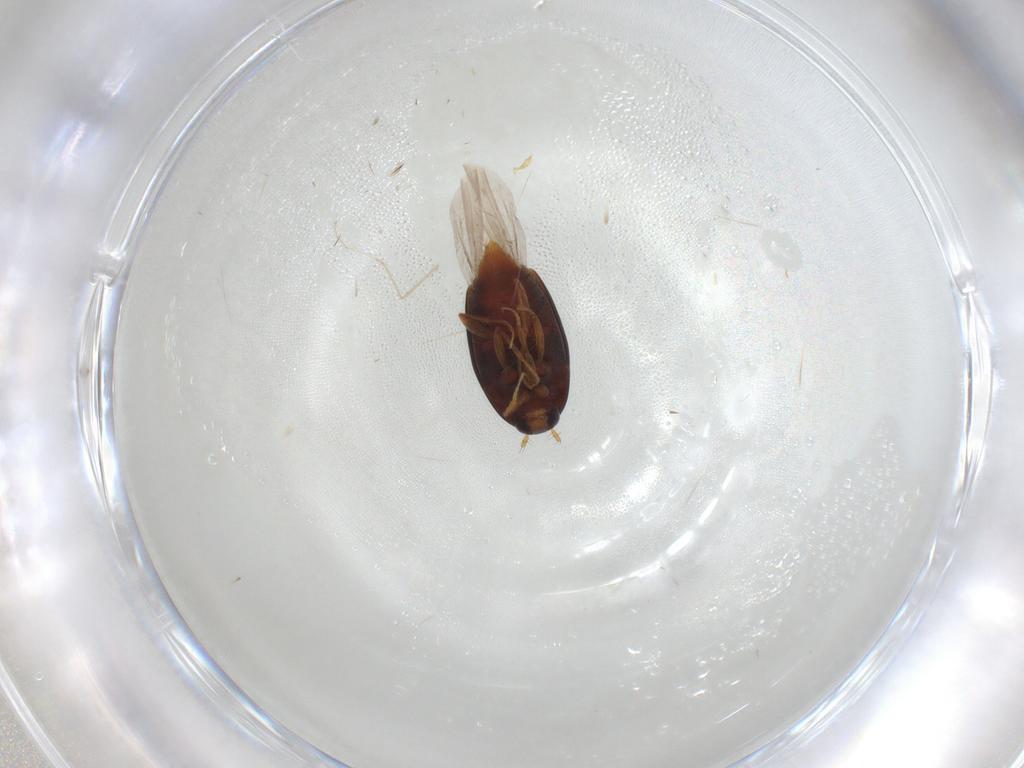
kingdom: Animalia
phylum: Arthropoda
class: Insecta
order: Coleoptera
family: Staphylinidae
